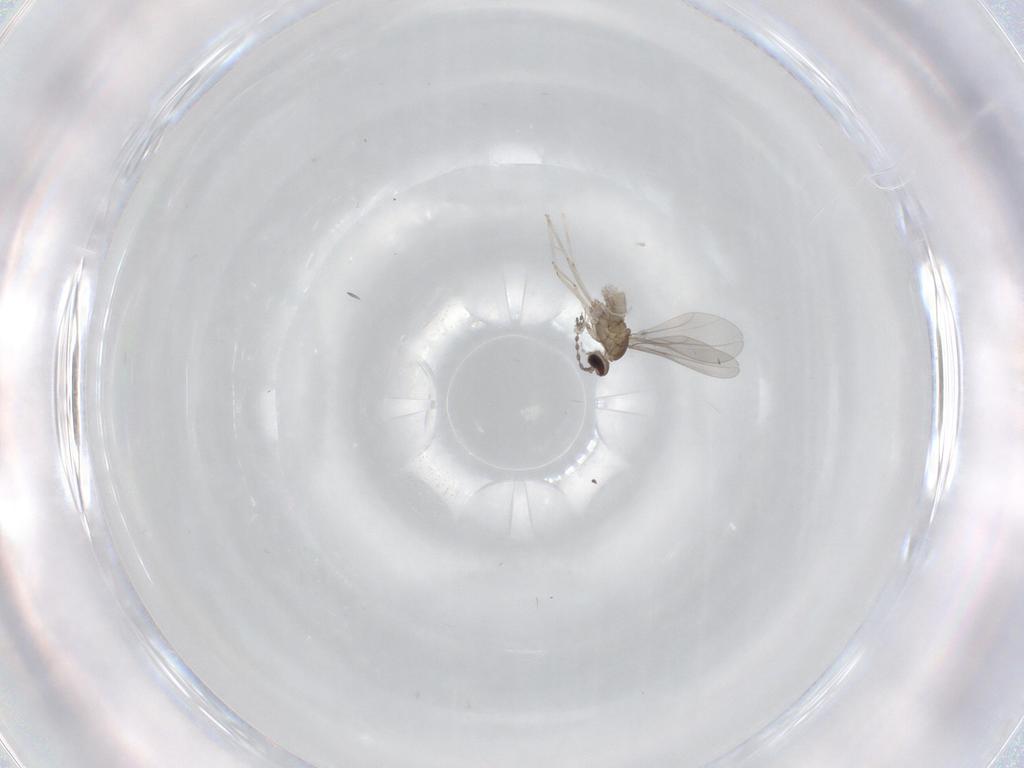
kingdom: Animalia
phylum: Arthropoda
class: Insecta
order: Diptera
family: Cecidomyiidae
